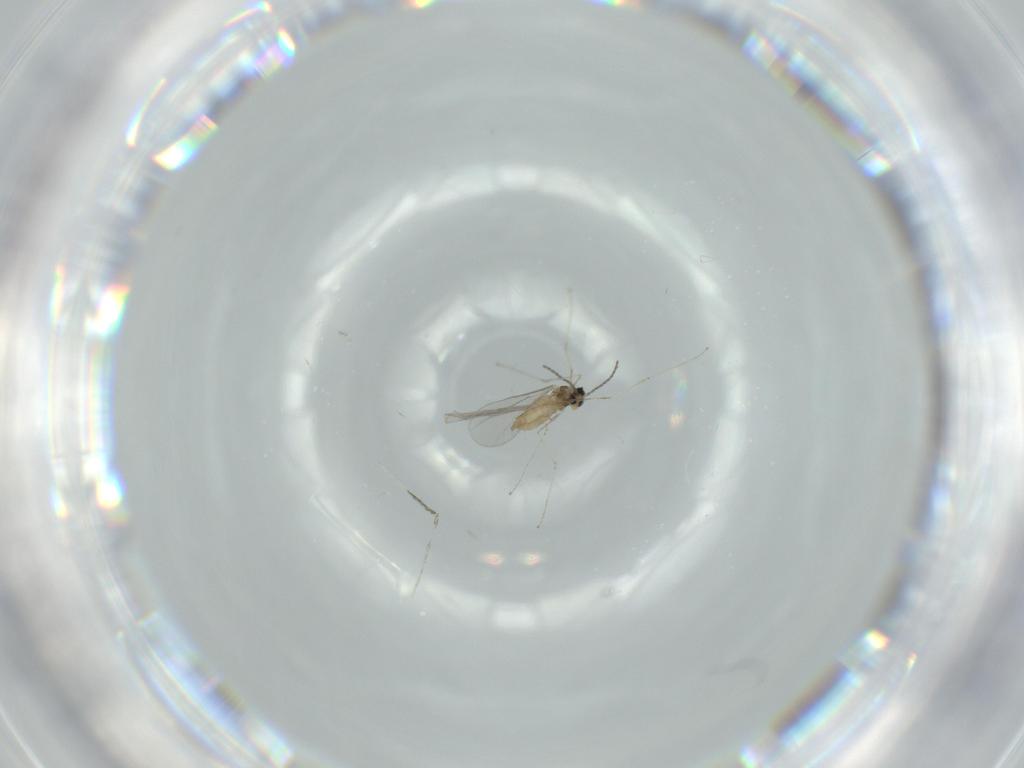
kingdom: Animalia
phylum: Arthropoda
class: Insecta
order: Diptera
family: Cecidomyiidae
